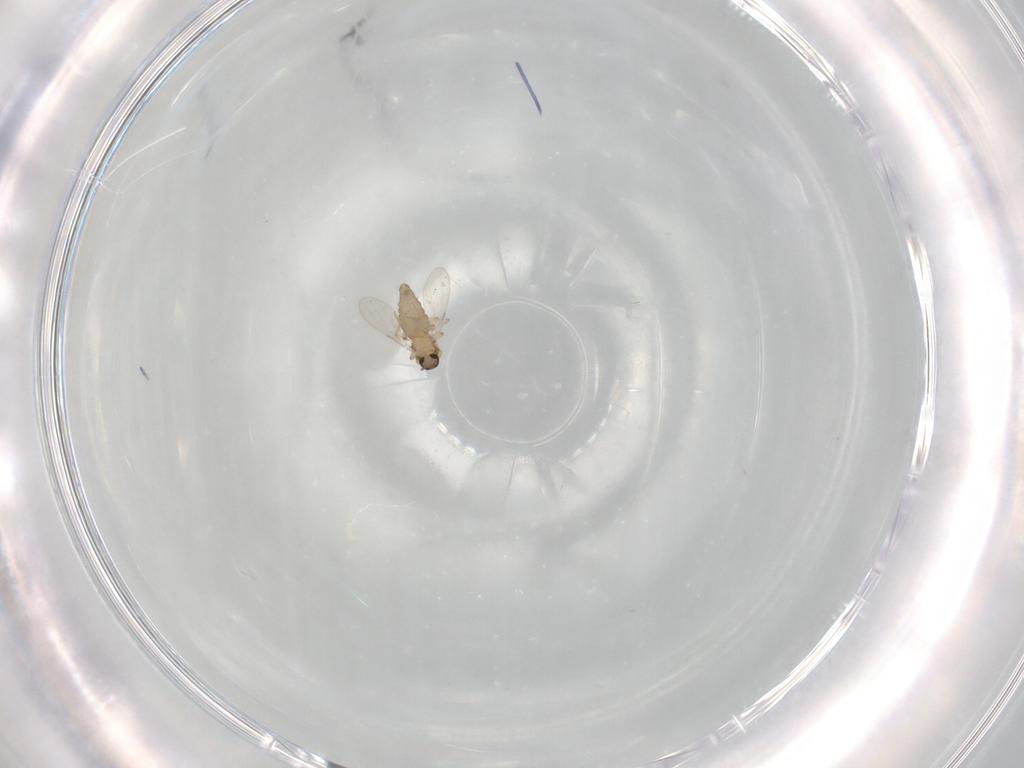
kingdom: Animalia
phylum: Arthropoda
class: Insecta
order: Diptera
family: Ceratopogonidae
